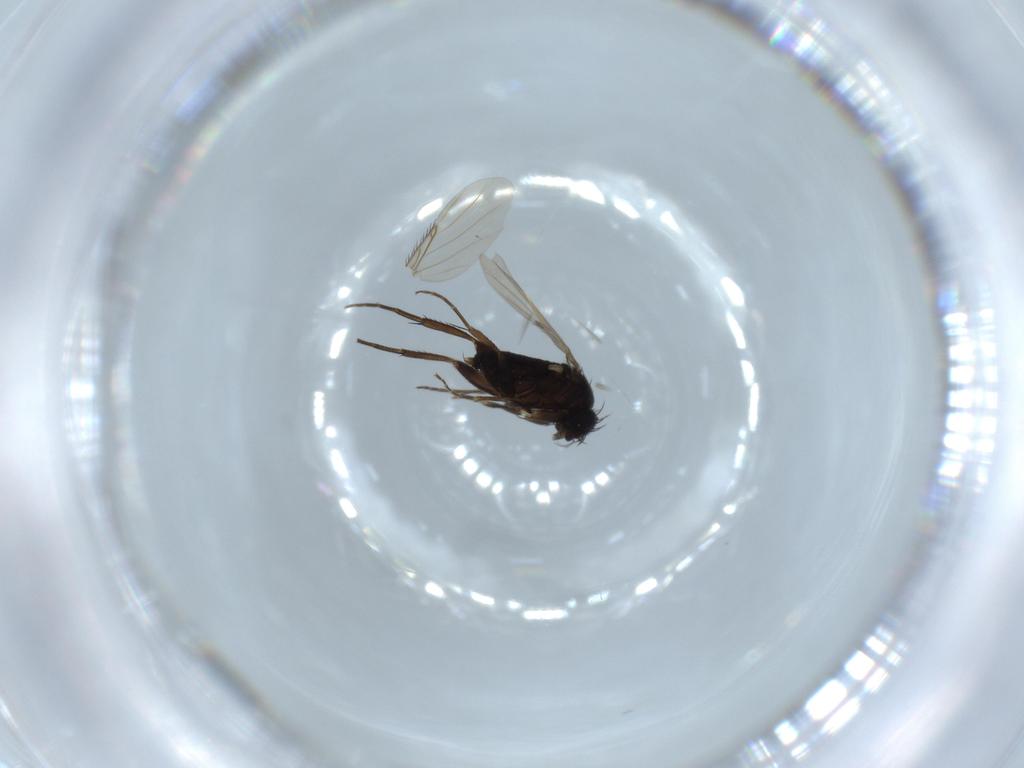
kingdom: Animalia
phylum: Arthropoda
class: Insecta
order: Diptera
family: Phoridae
